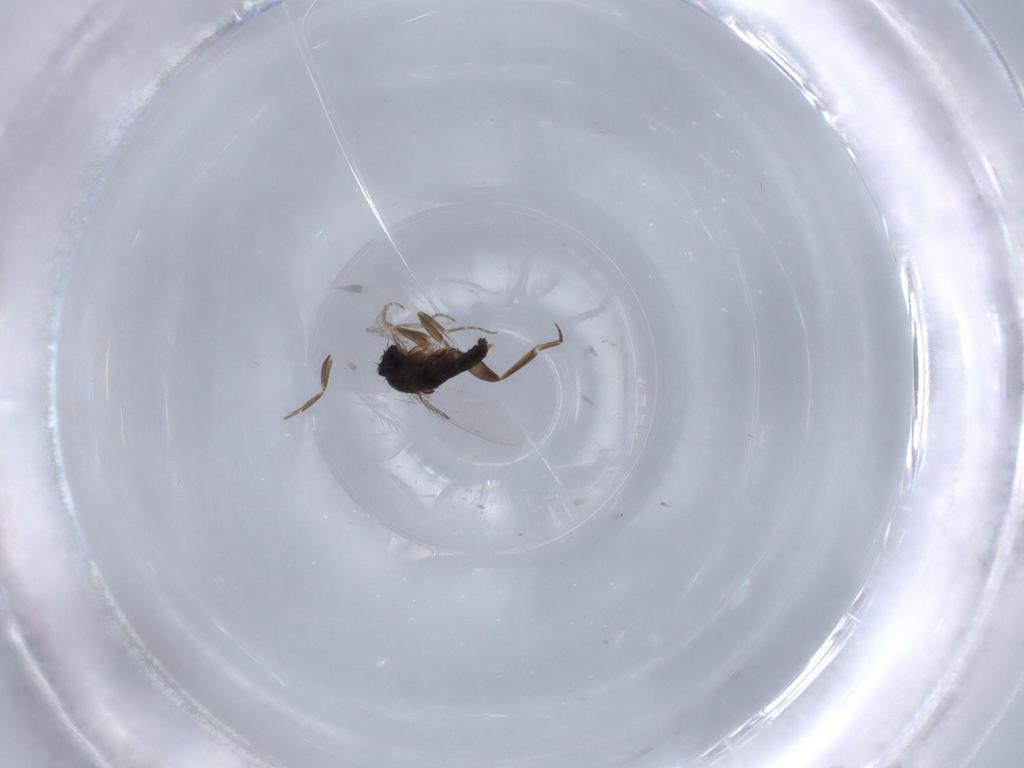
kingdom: Animalia
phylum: Arthropoda
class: Insecta
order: Diptera
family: Phoridae
